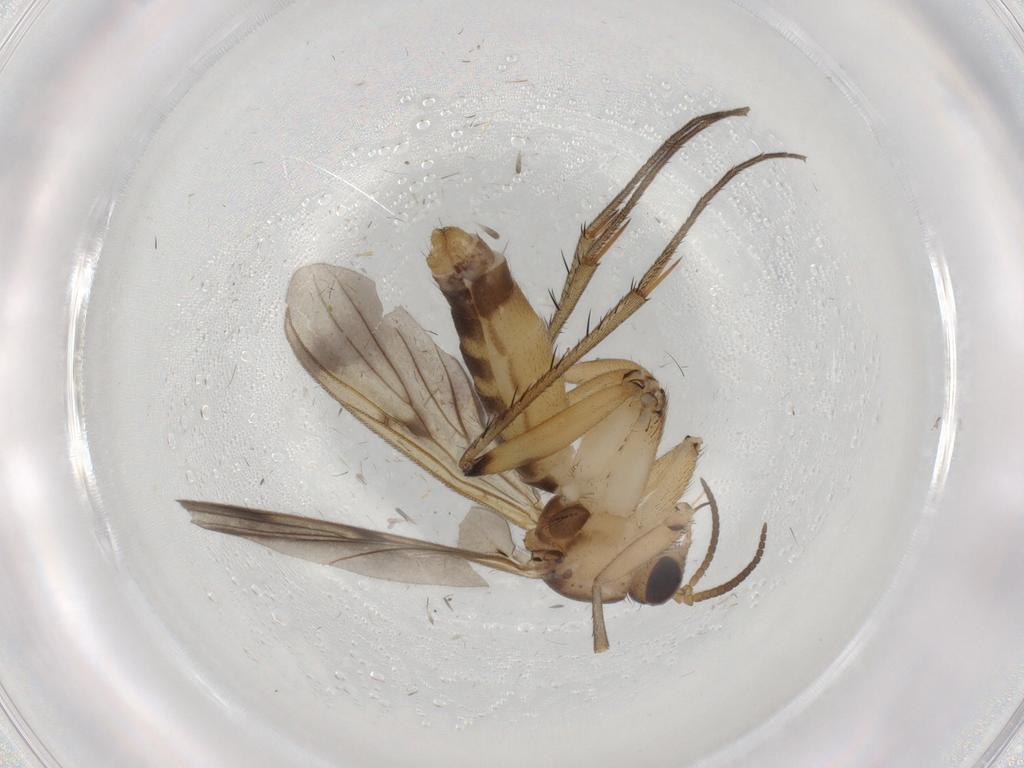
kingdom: Animalia
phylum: Arthropoda
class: Insecta
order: Diptera
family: Mycetophilidae
